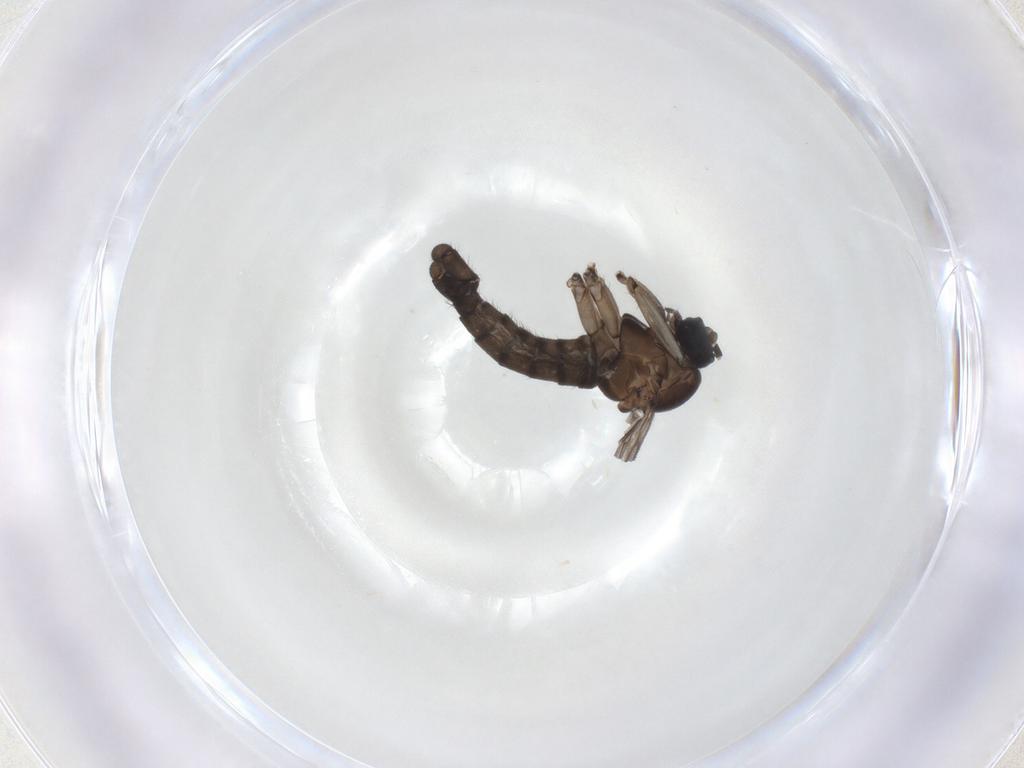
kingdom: Animalia
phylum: Arthropoda
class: Insecta
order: Diptera
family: Sciaridae
